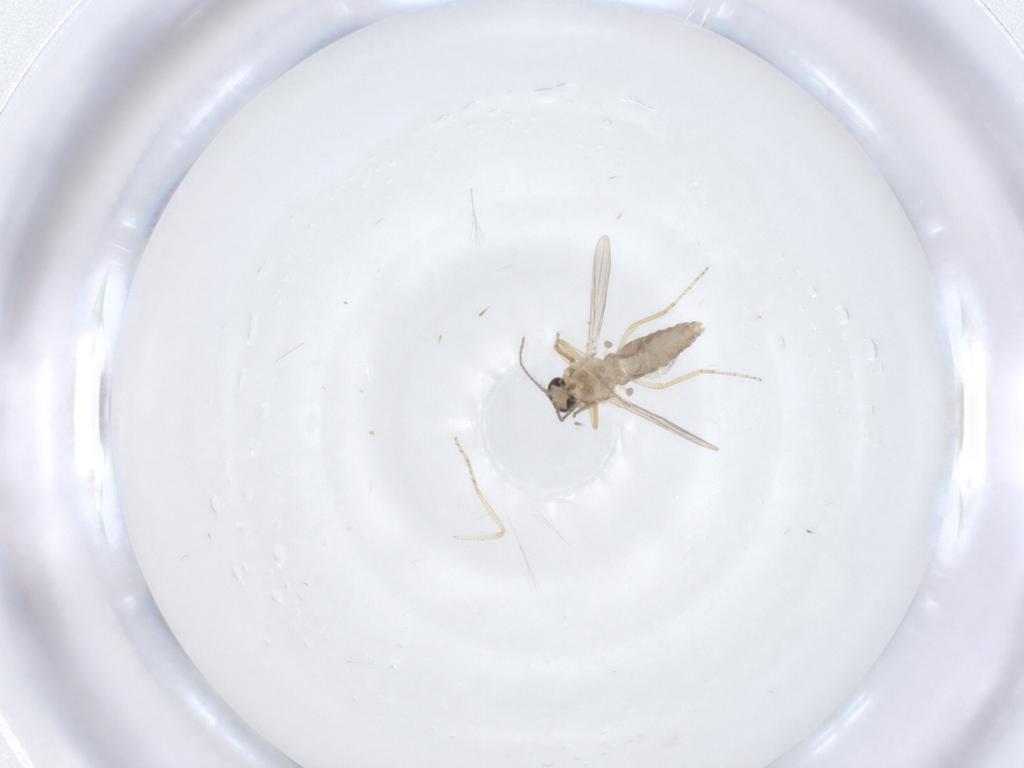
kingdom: Animalia
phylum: Arthropoda
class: Insecta
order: Diptera
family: Ceratopogonidae
